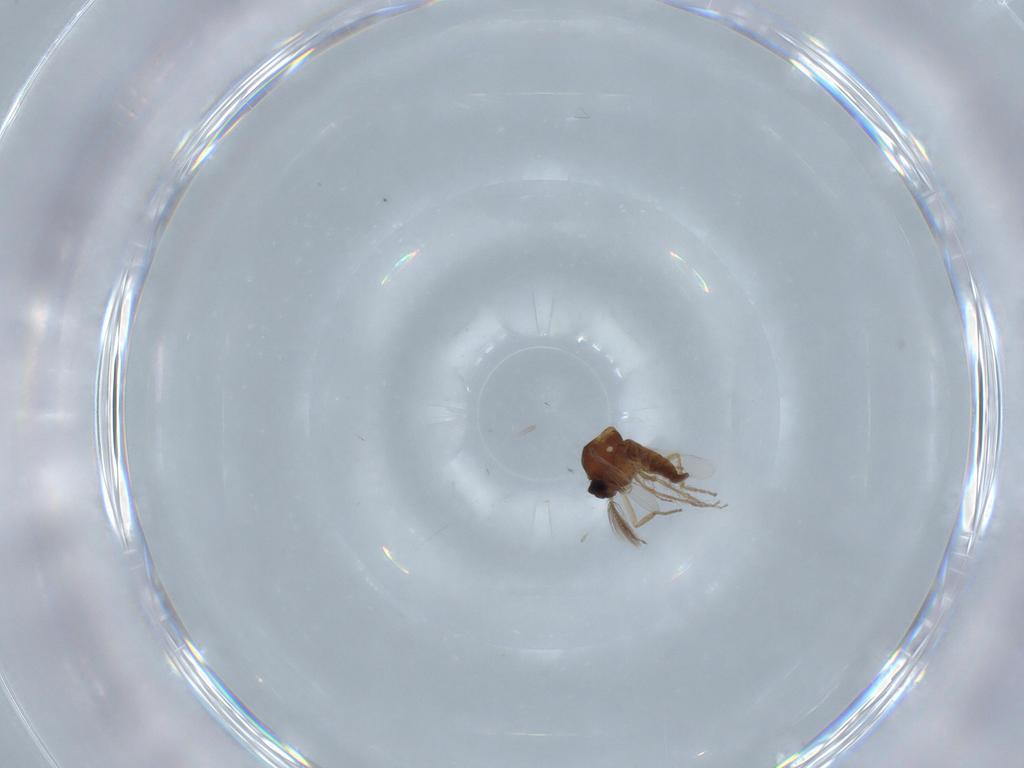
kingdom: Animalia
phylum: Arthropoda
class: Insecta
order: Diptera
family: Ceratopogonidae
